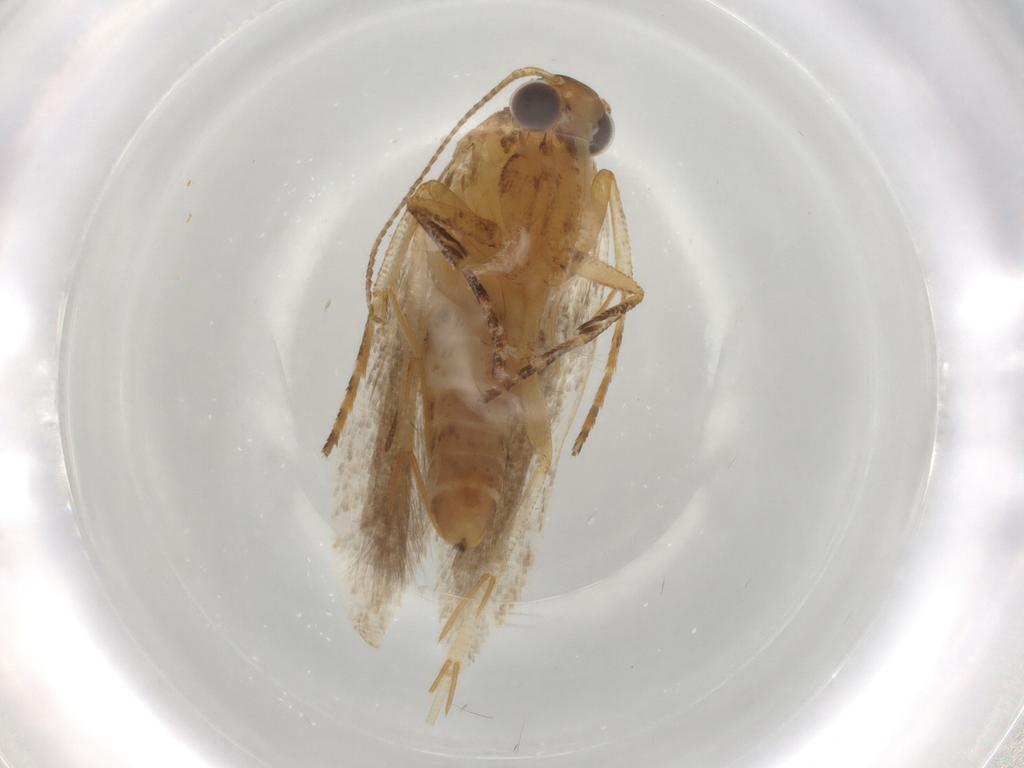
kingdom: Animalia
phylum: Arthropoda
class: Insecta
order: Lepidoptera
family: Gelechiidae
